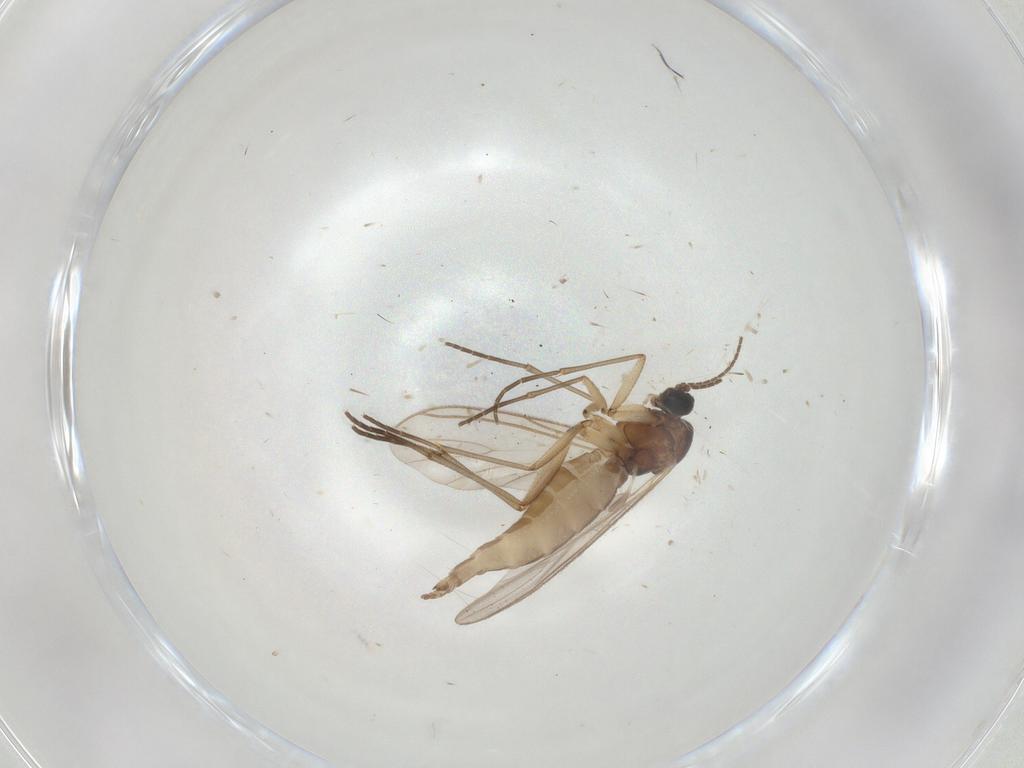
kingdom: Animalia
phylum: Arthropoda
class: Insecta
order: Diptera
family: Sciaridae
